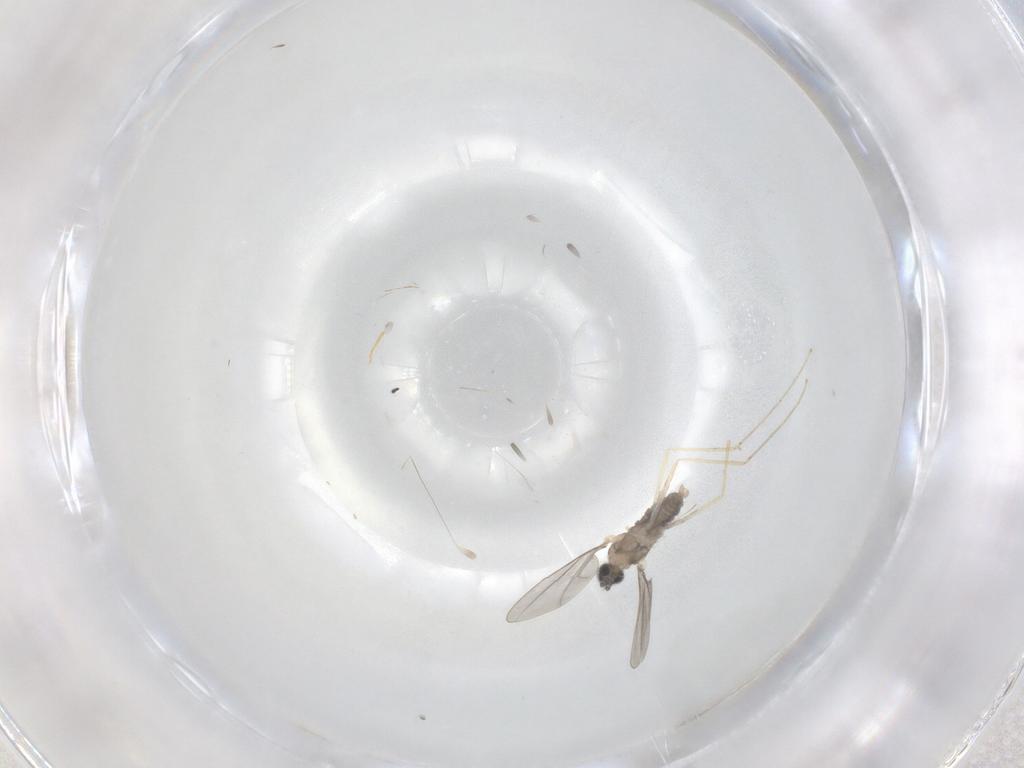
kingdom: Animalia
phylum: Arthropoda
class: Insecta
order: Diptera
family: Cecidomyiidae
